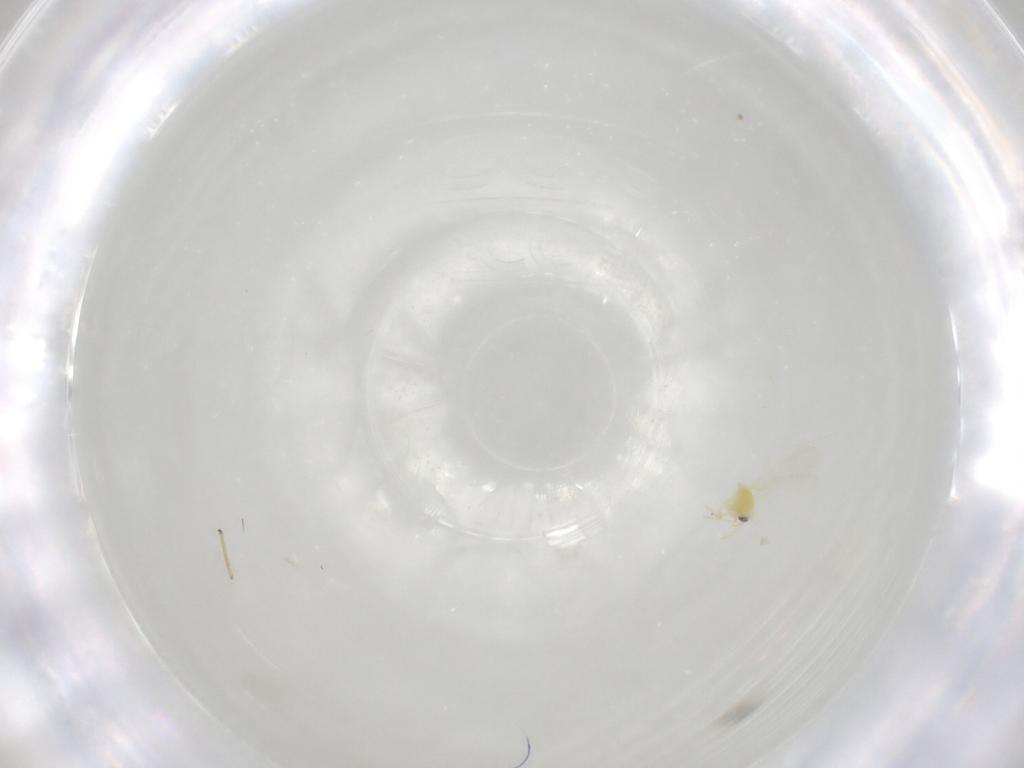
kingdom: Animalia
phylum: Arthropoda
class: Insecta
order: Hemiptera
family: Aleyrodidae
